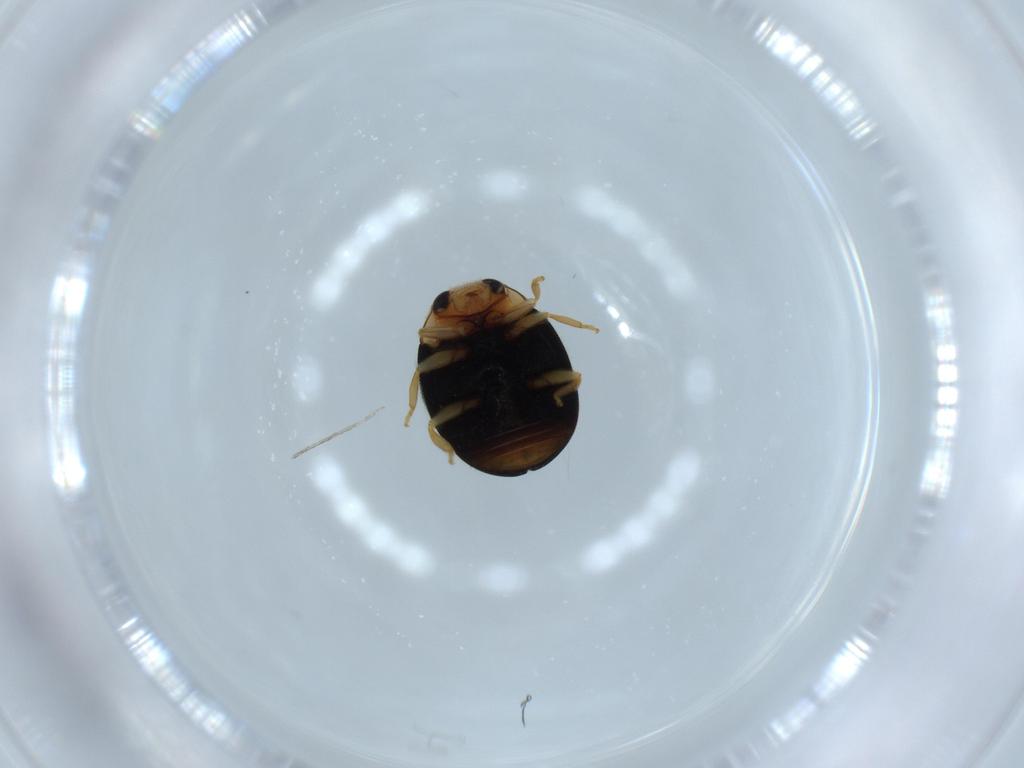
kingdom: Animalia
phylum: Arthropoda
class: Insecta
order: Coleoptera
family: Coccinellidae
